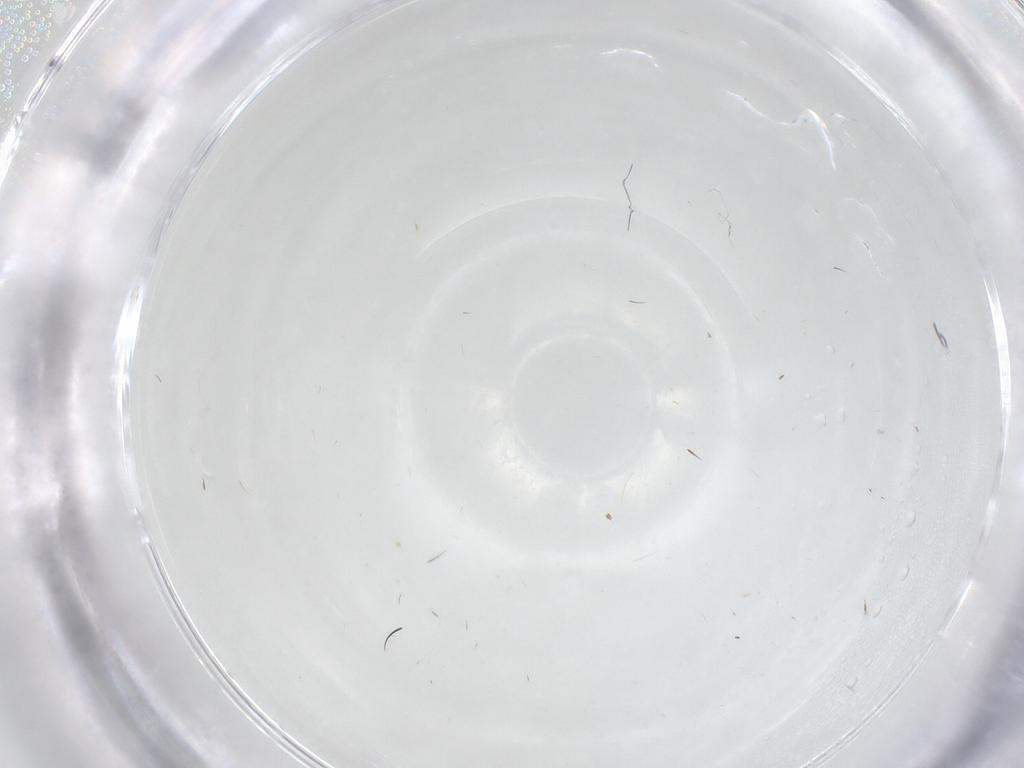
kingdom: Animalia
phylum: Arthropoda
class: Insecta
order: Diptera
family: Ceratopogonidae
